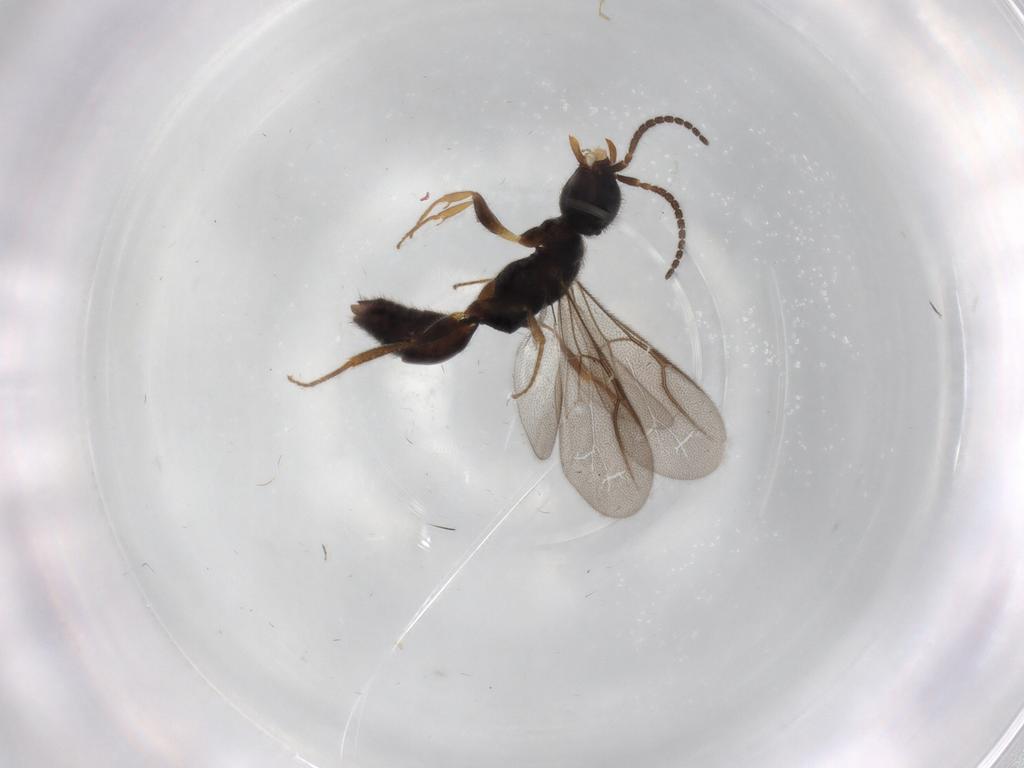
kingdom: Animalia
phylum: Arthropoda
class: Insecta
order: Hymenoptera
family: Bethylidae
